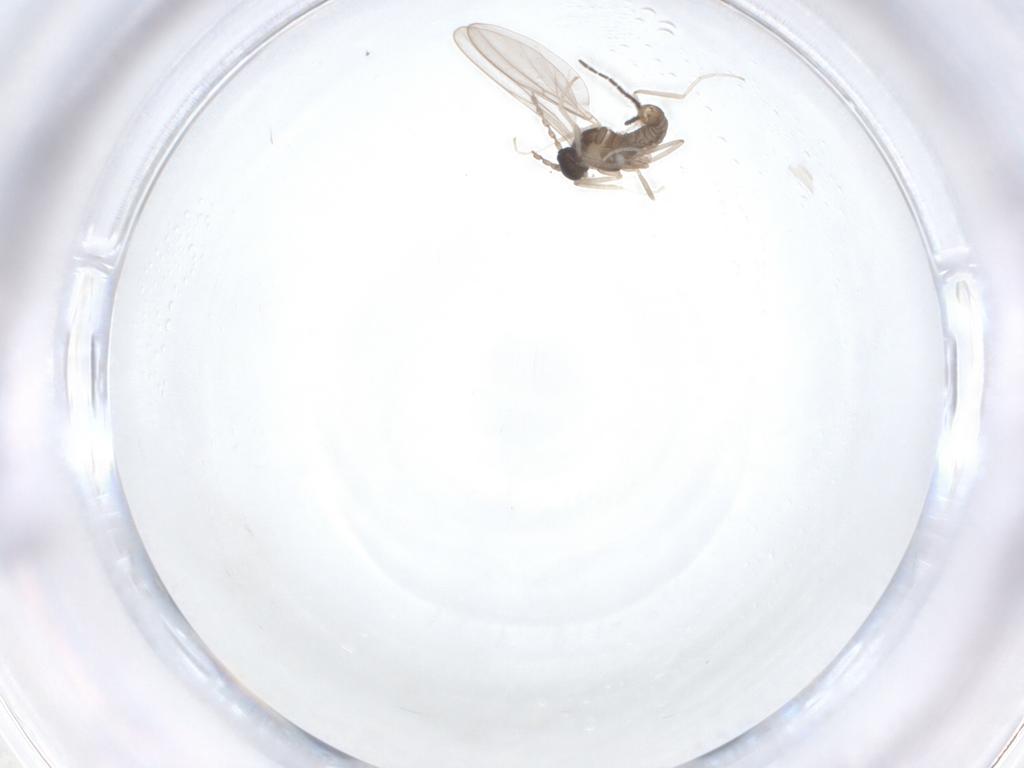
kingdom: Animalia
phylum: Arthropoda
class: Insecta
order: Diptera
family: Cecidomyiidae
